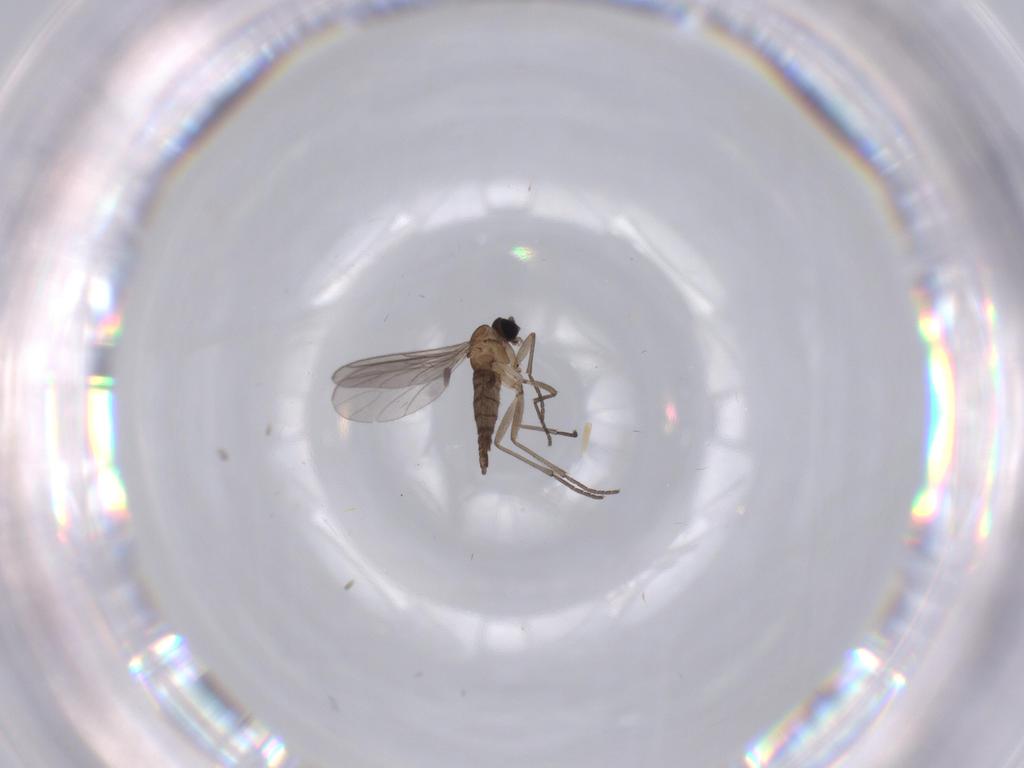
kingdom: Animalia
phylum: Arthropoda
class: Insecta
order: Diptera
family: Sciaridae
